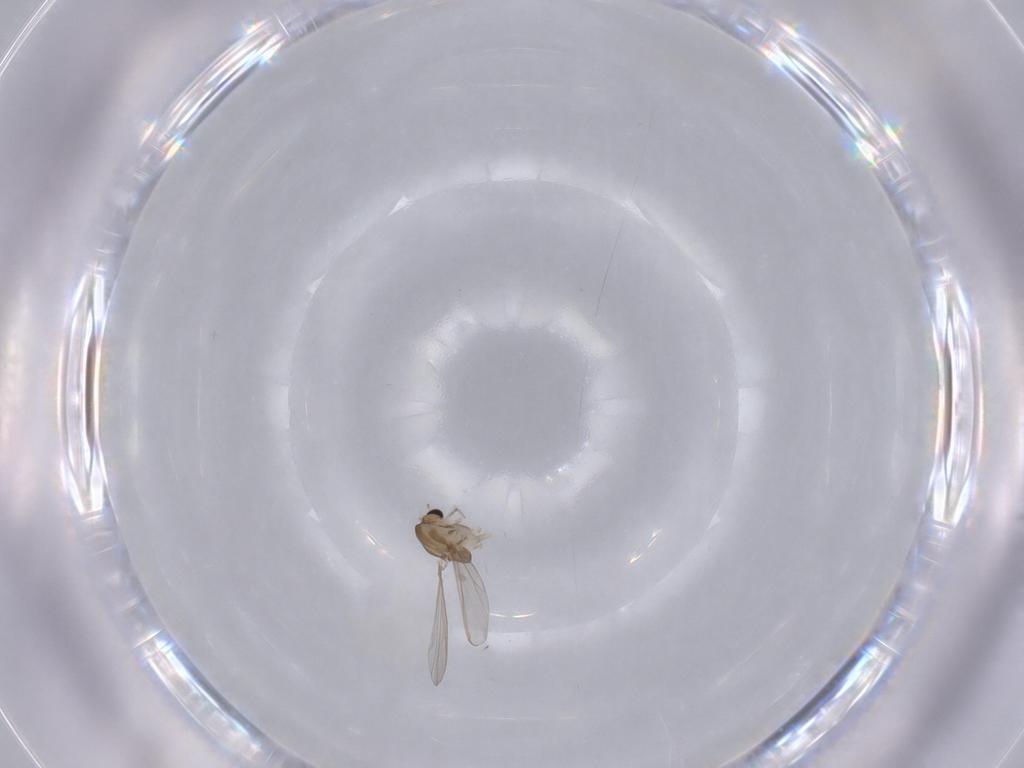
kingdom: Animalia
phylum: Arthropoda
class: Insecta
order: Diptera
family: Chironomidae
